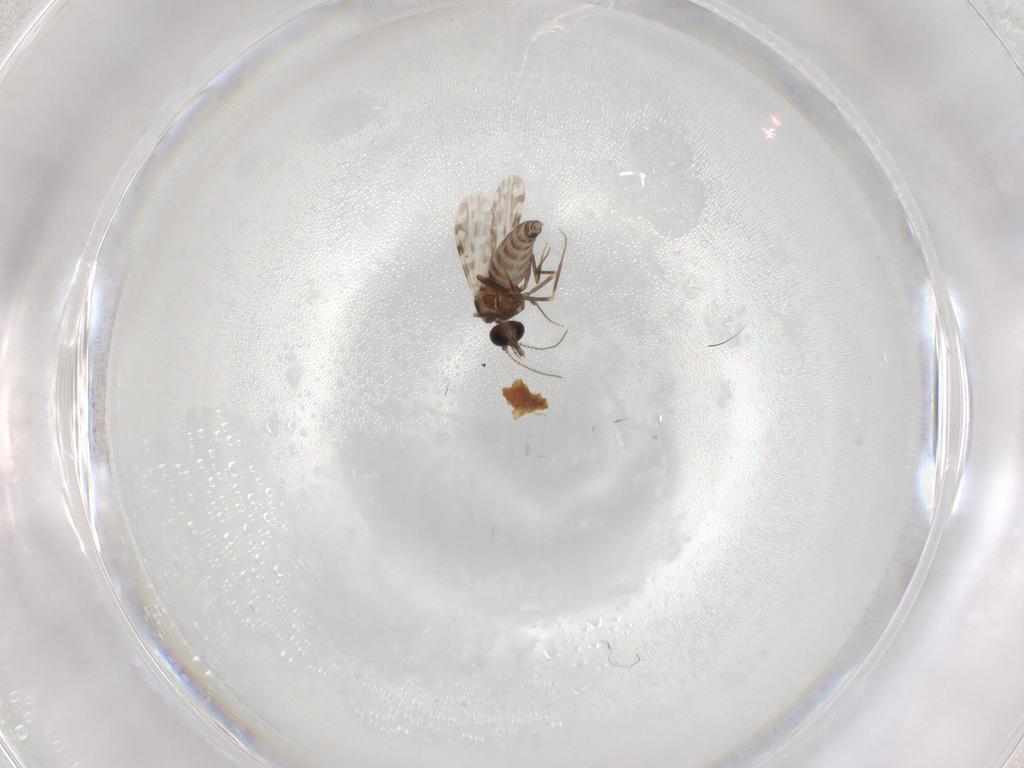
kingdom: Animalia
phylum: Arthropoda
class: Insecta
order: Diptera
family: Ceratopogonidae
